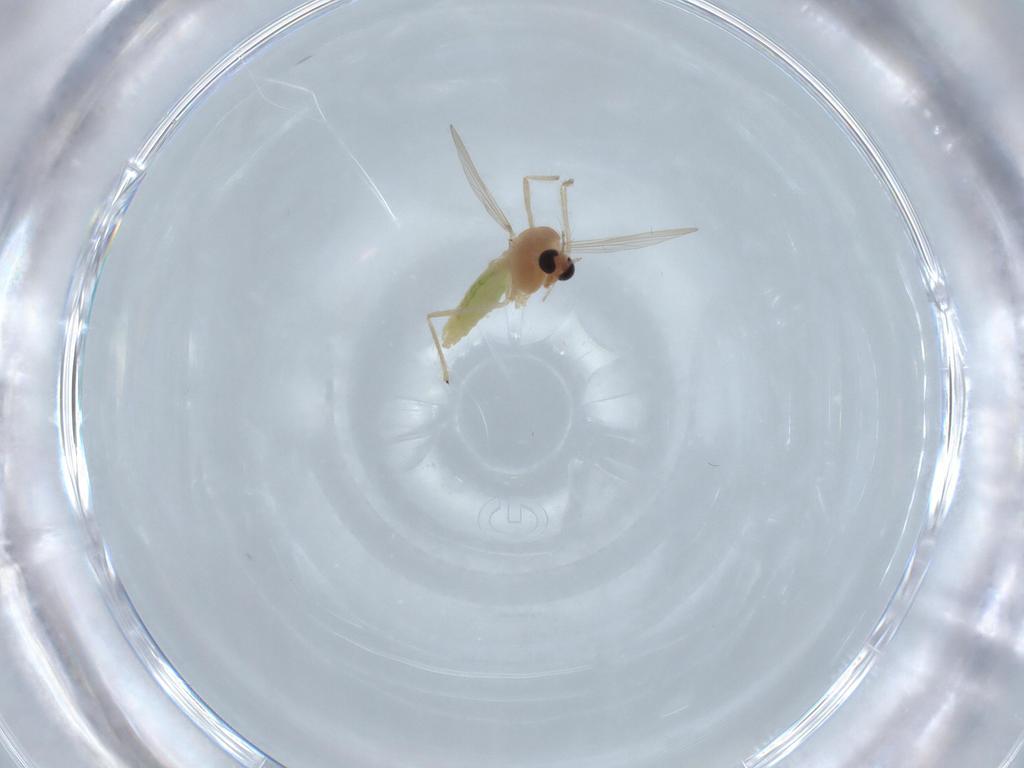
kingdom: Animalia
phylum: Arthropoda
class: Insecta
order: Diptera
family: Chironomidae
